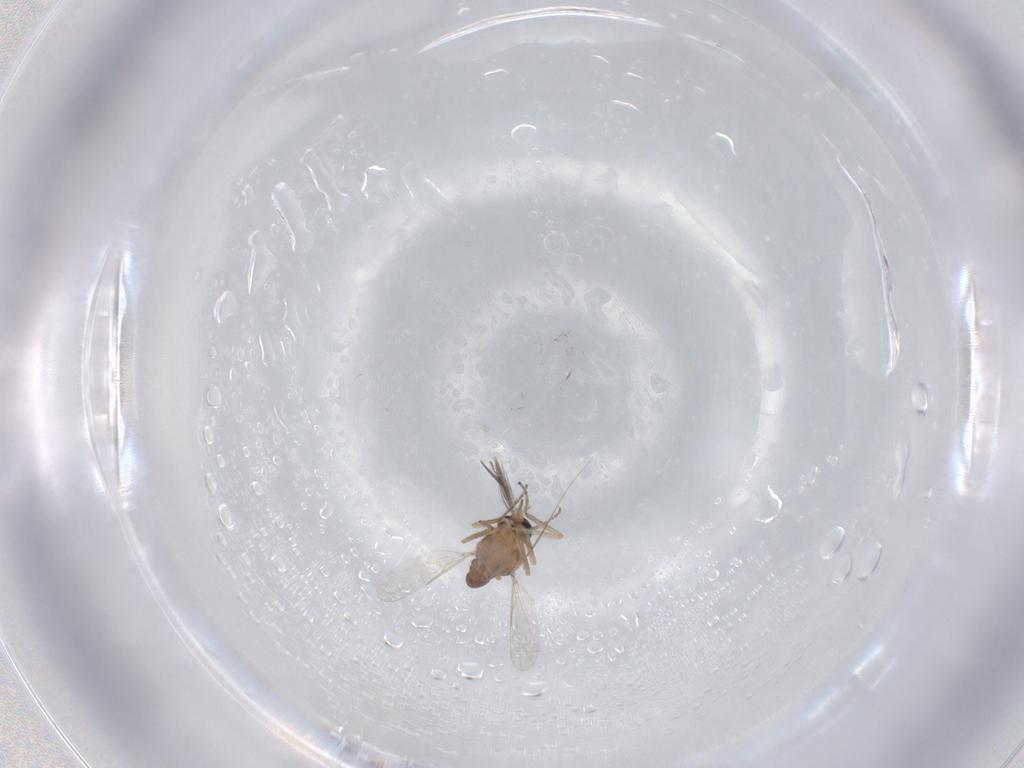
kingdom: Animalia
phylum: Arthropoda
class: Insecta
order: Diptera
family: Ceratopogonidae
